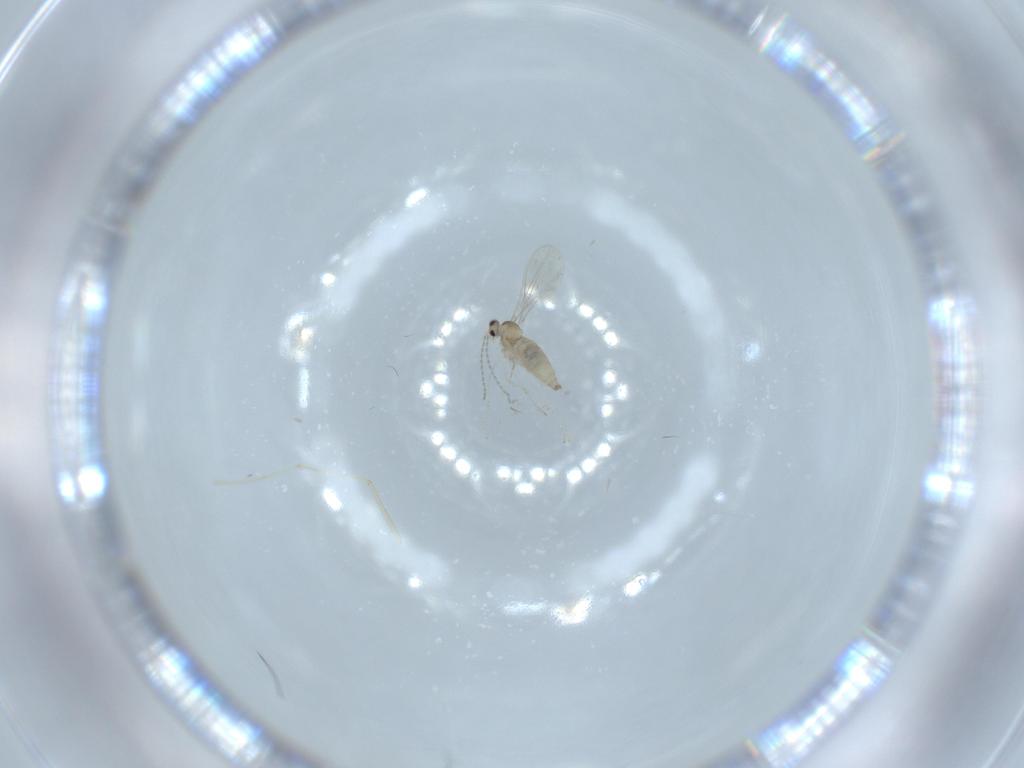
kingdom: Animalia
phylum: Arthropoda
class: Insecta
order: Diptera
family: Cecidomyiidae
